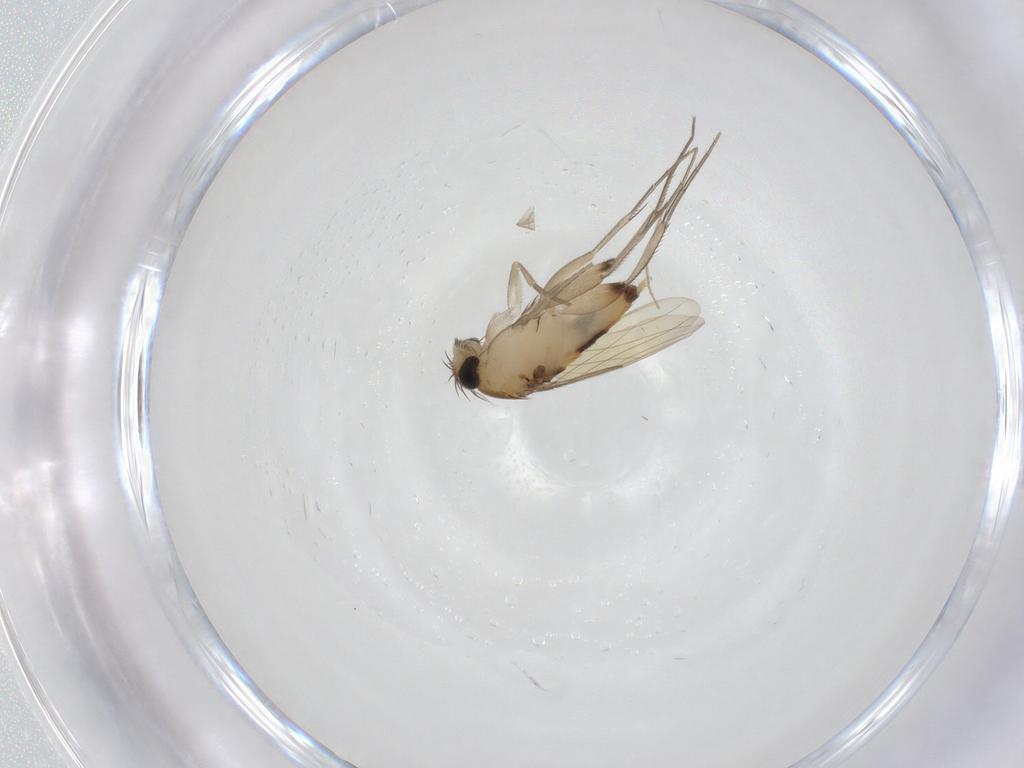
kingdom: Animalia
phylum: Arthropoda
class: Insecta
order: Diptera
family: Phoridae
